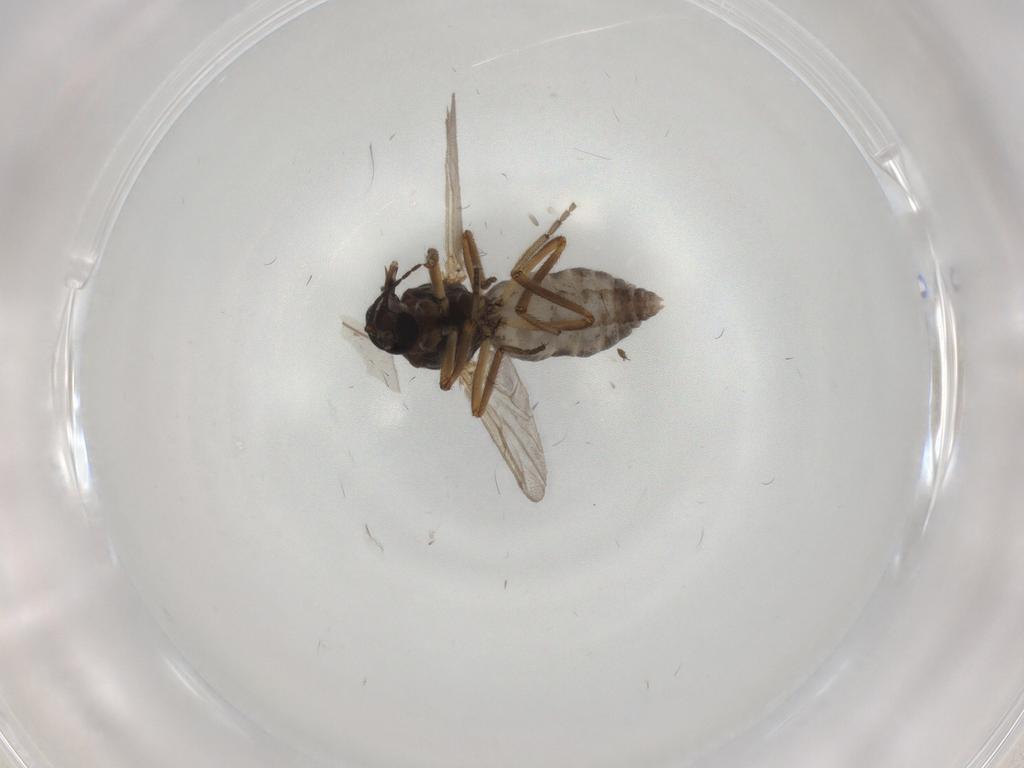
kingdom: Animalia
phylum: Arthropoda
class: Insecta
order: Diptera
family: Ceratopogonidae
